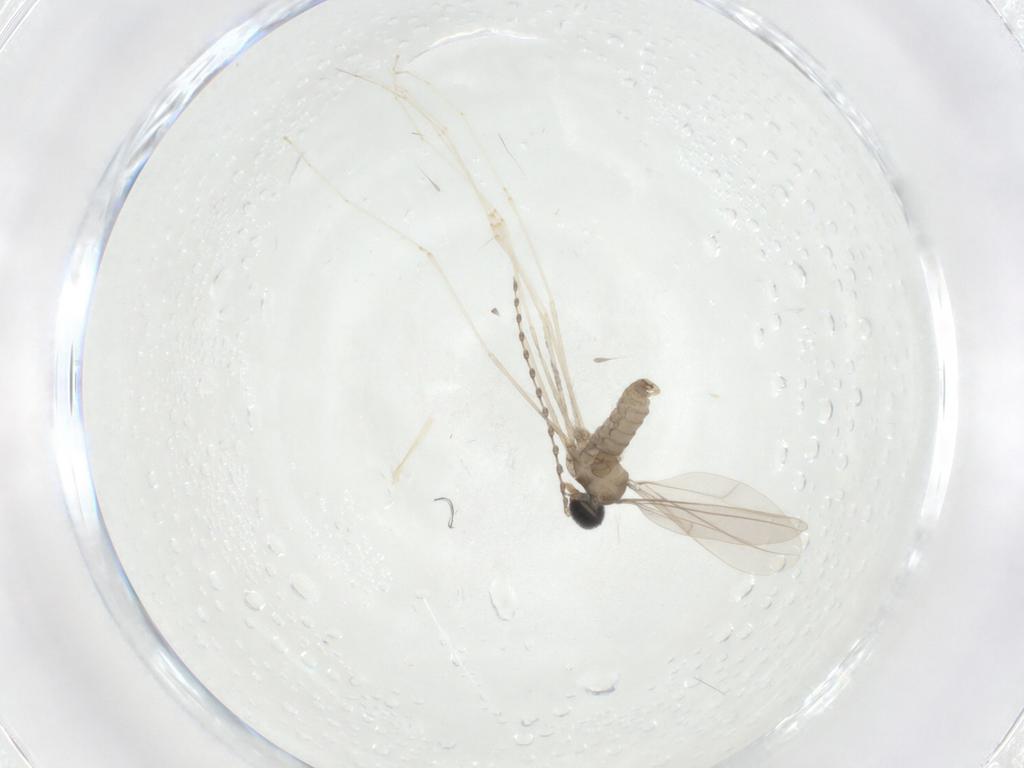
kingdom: Animalia
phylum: Arthropoda
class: Insecta
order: Diptera
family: Cecidomyiidae
